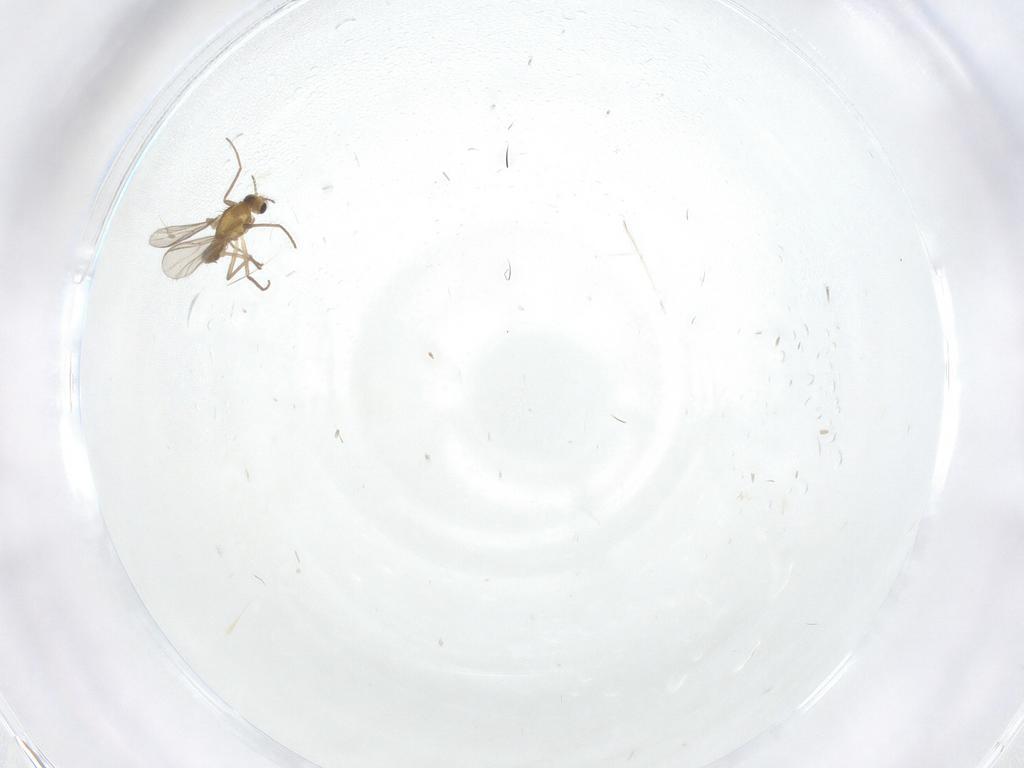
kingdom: Animalia
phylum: Arthropoda
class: Insecta
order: Diptera
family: Chironomidae
